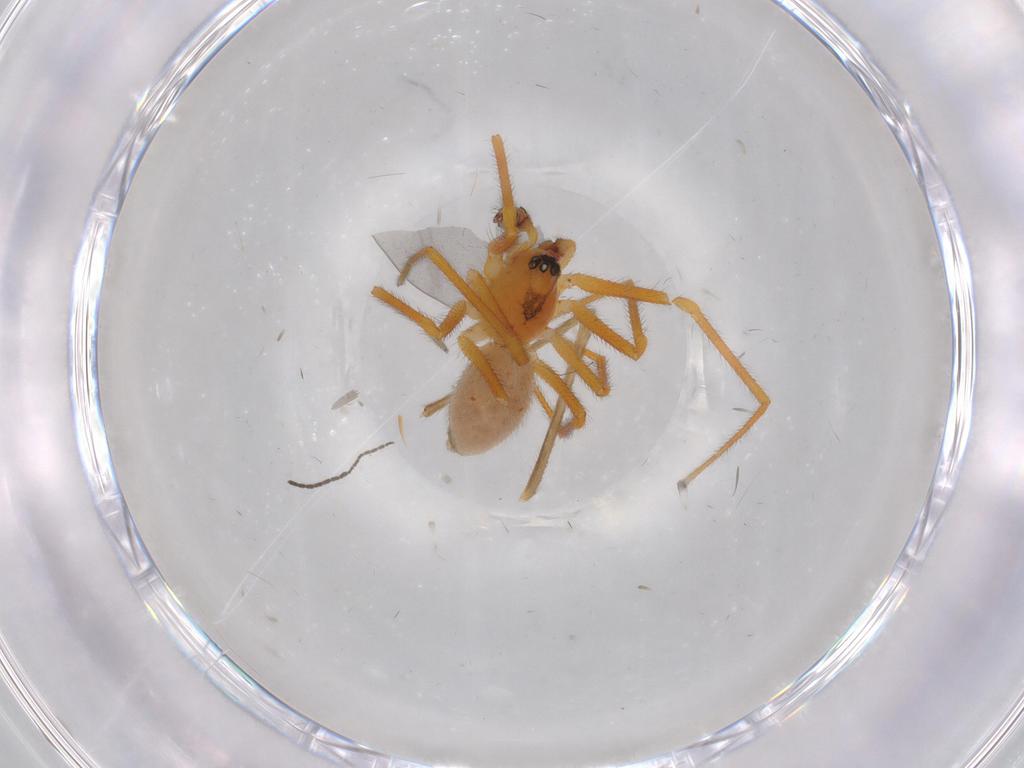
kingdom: Animalia
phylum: Arthropoda
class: Arachnida
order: Araneae
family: Linyphiidae
